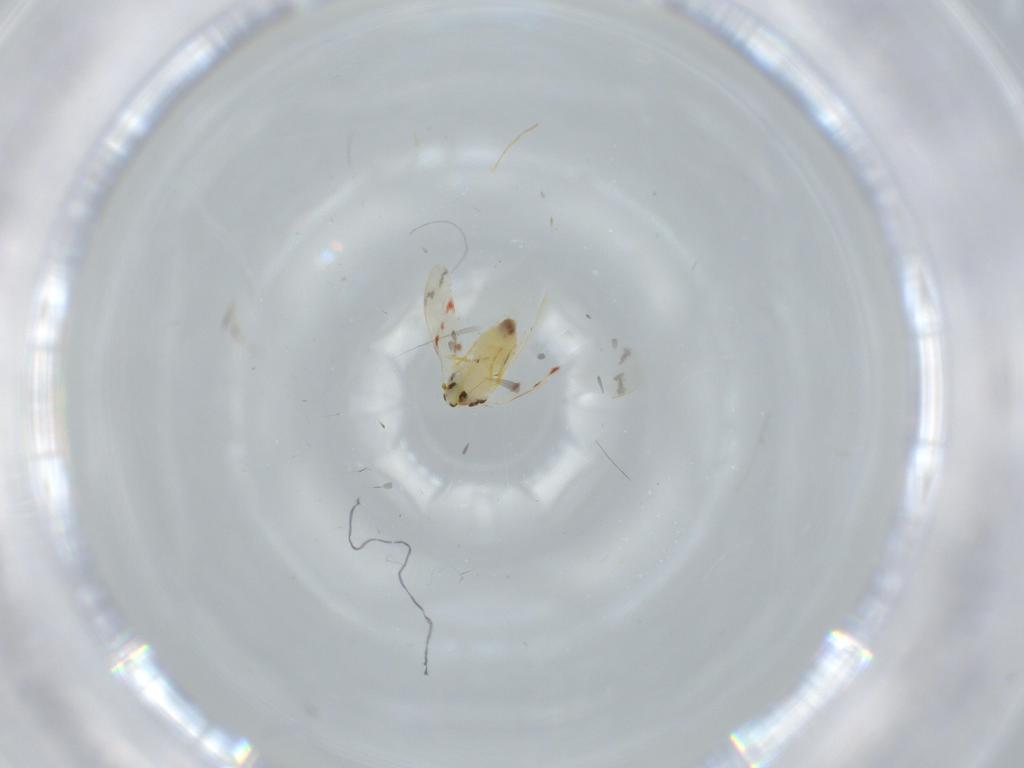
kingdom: Animalia
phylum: Arthropoda
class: Insecta
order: Hemiptera
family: Aleyrodidae
